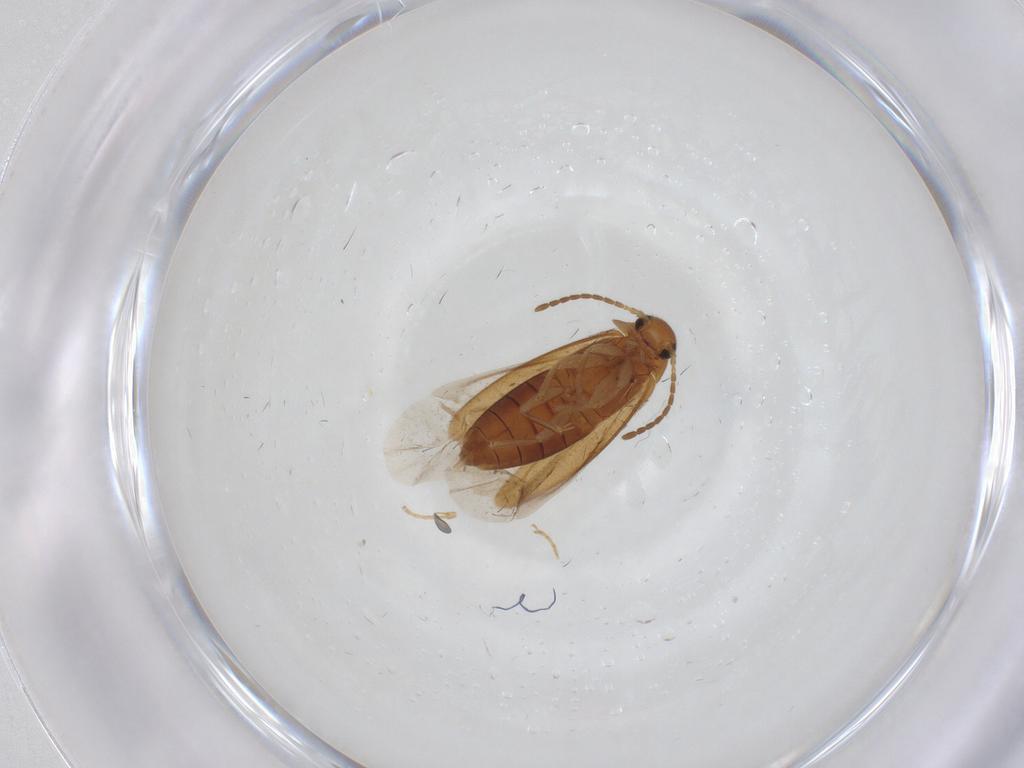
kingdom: Animalia
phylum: Arthropoda
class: Insecta
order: Coleoptera
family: Scraptiidae
